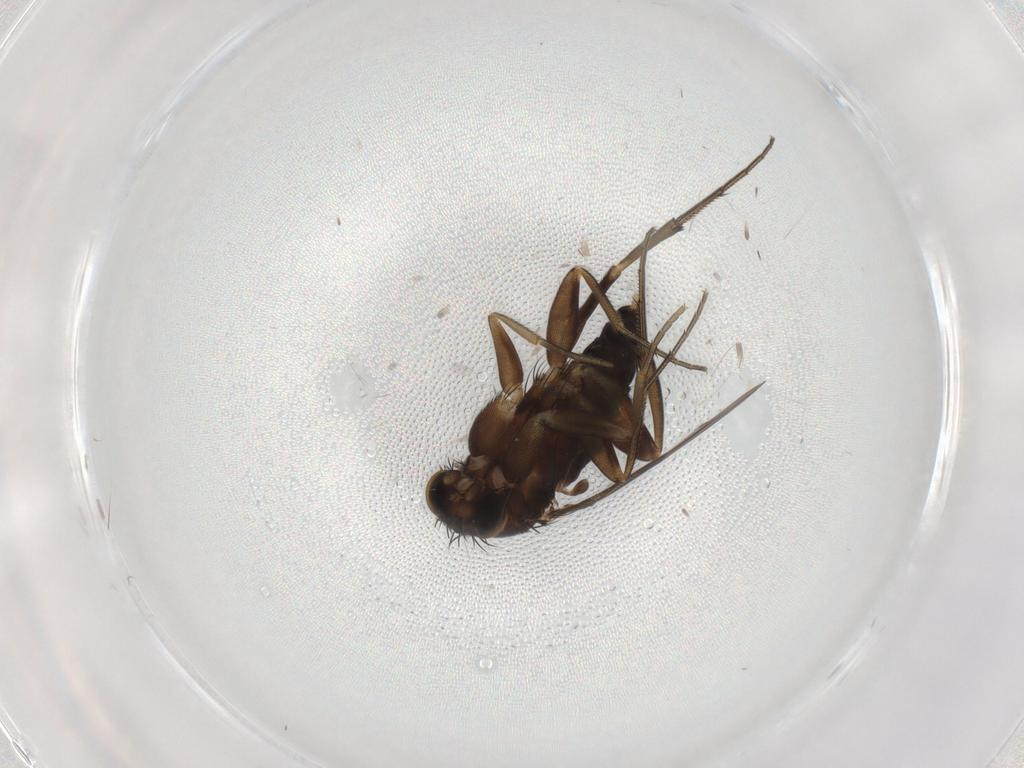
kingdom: Animalia
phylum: Arthropoda
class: Insecta
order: Diptera
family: Phoridae
